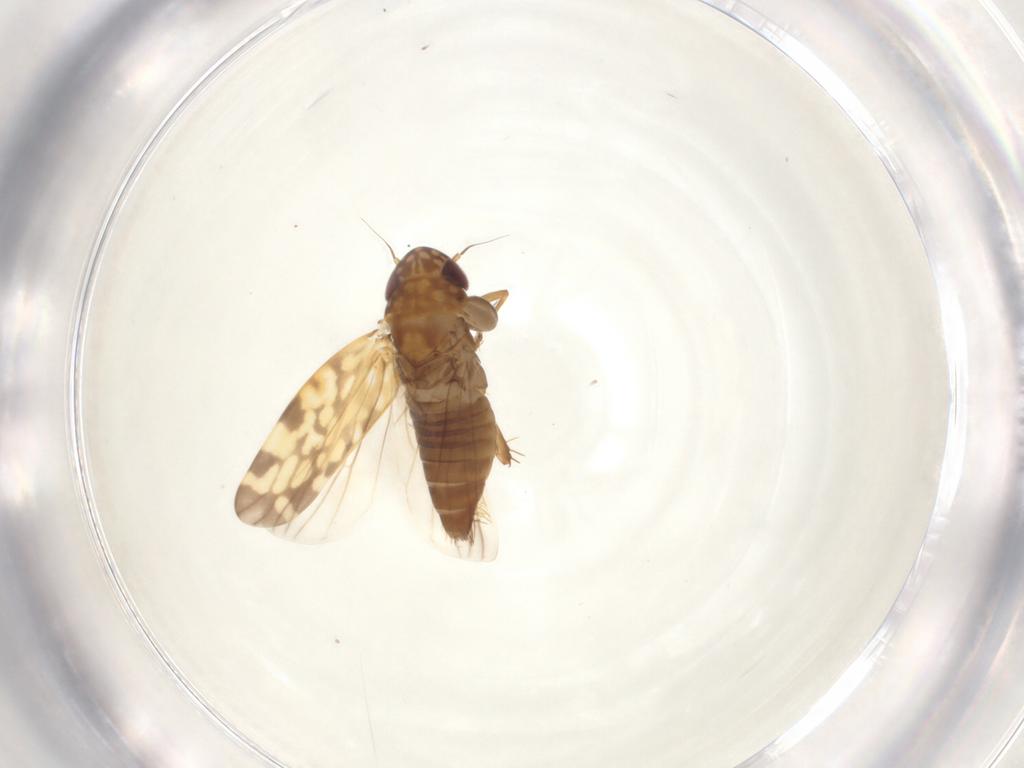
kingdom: Animalia
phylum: Arthropoda
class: Insecta
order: Hemiptera
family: Cicadellidae
